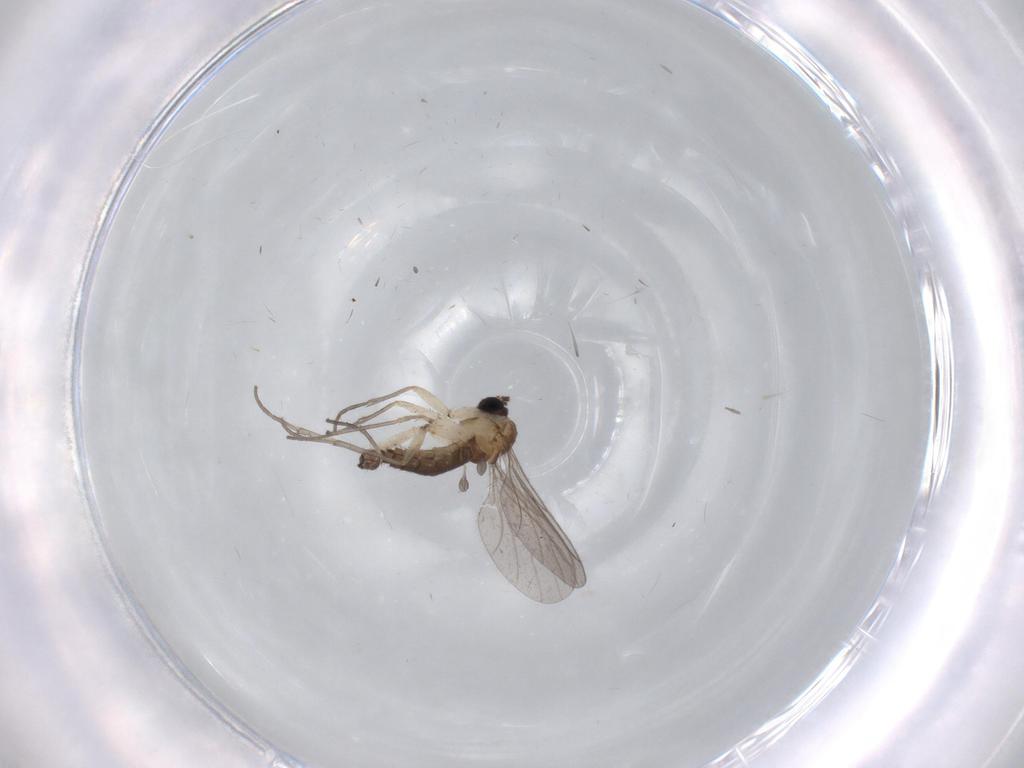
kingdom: Animalia
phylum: Arthropoda
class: Insecta
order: Diptera
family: Sciaridae
